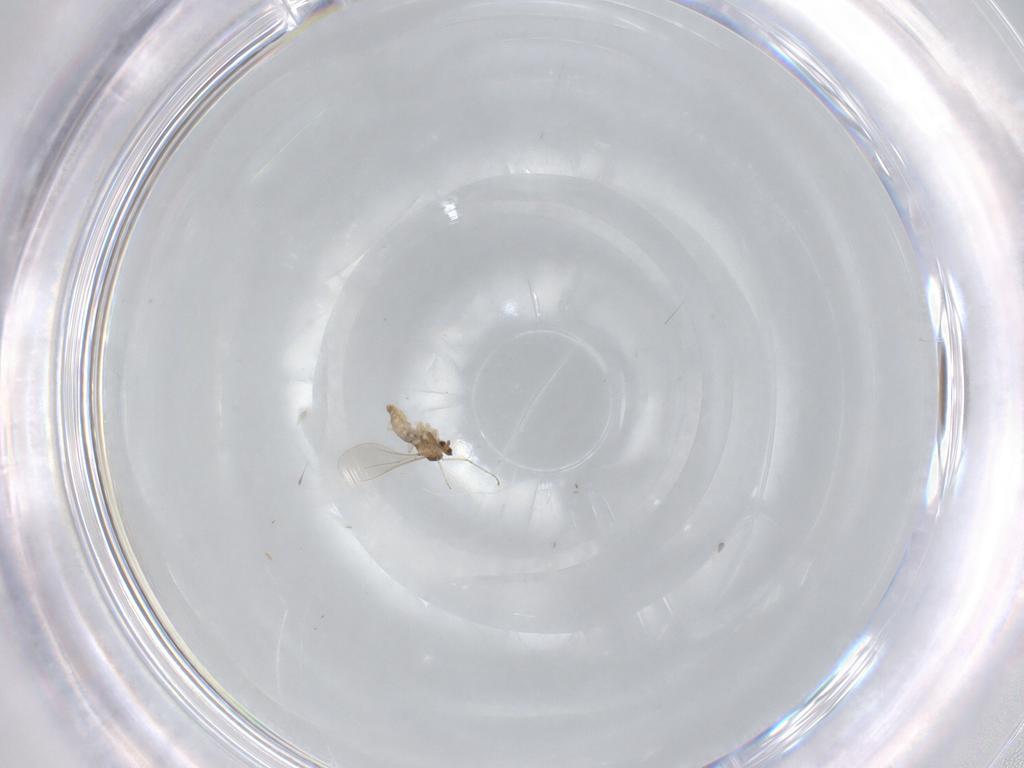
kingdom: Animalia
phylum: Arthropoda
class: Insecta
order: Diptera
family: Cecidomyiidae
